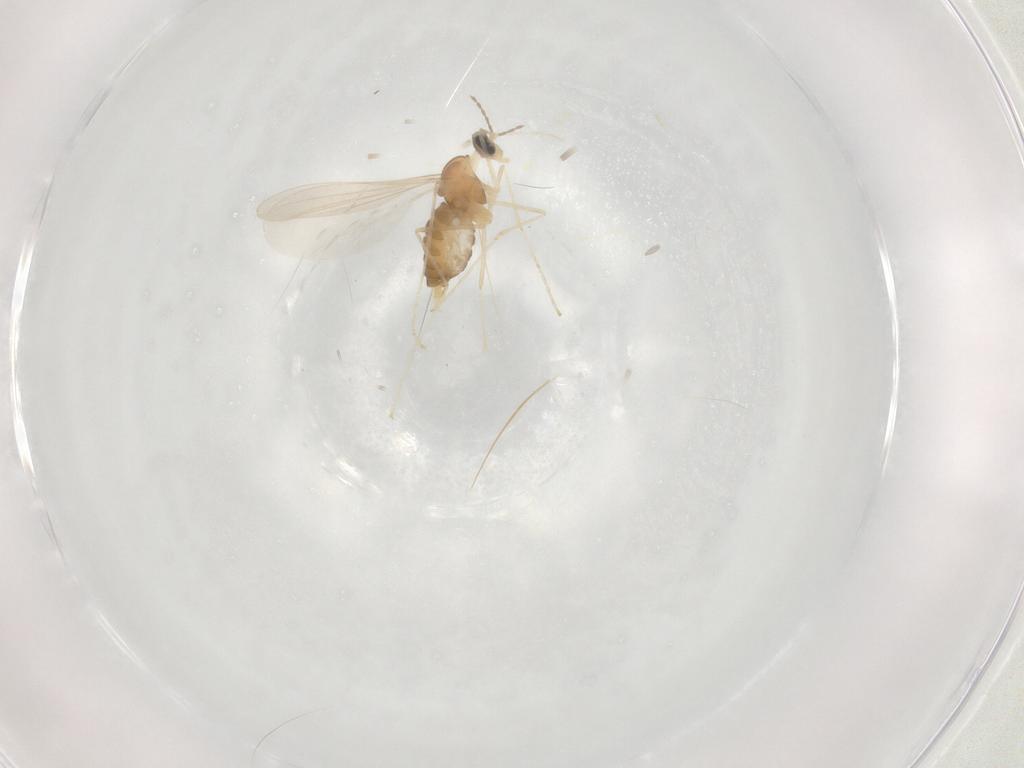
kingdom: Animalia
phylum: Arthropoda
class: Insecta
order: Diptera
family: Cecidomyiidae
